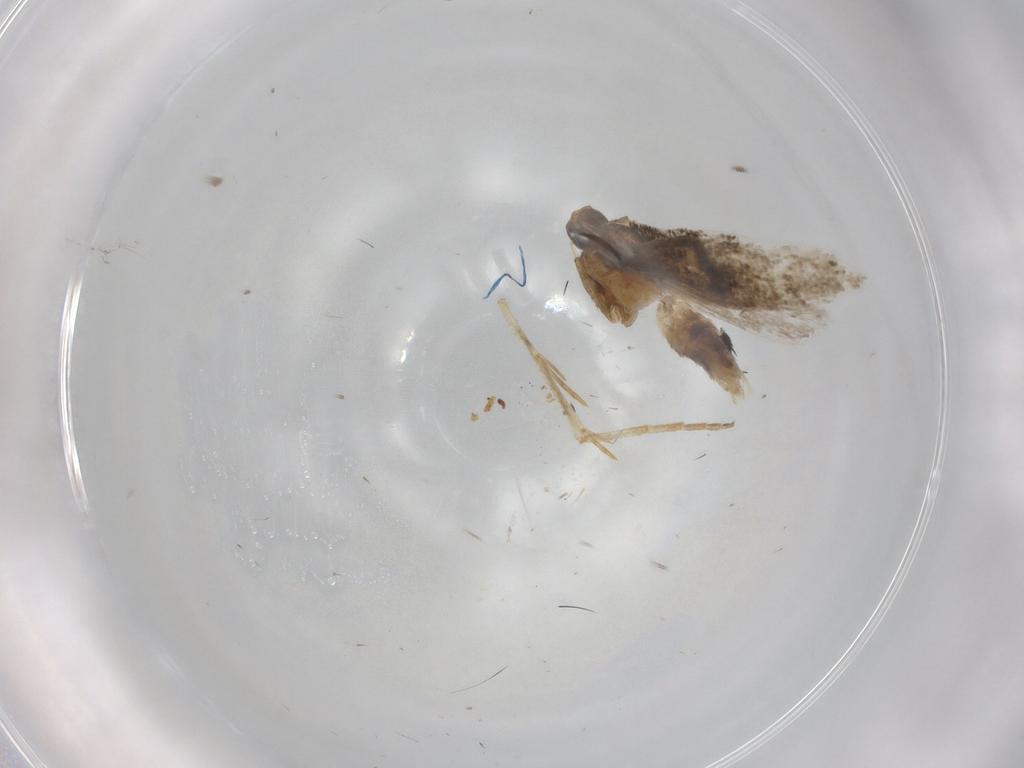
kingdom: Animalia
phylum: Arthropoda
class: Insecta
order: Lepidoptera
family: Gelechiidae
